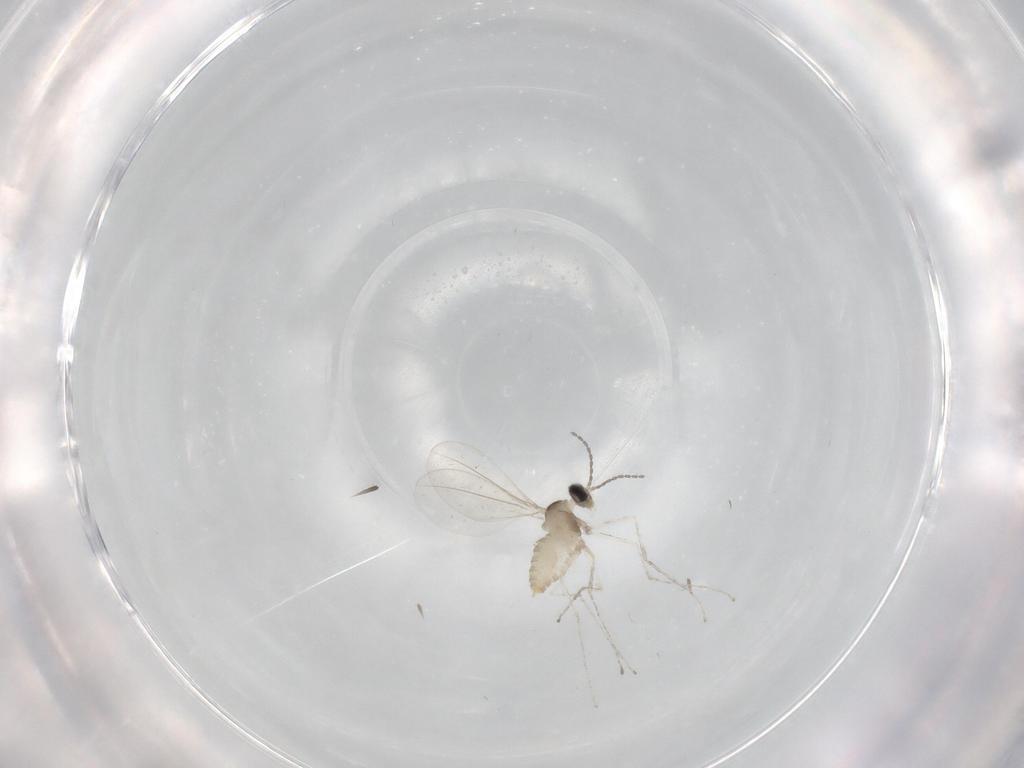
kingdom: Animalia
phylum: Arthropoda
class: Insecta
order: Diptera
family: Cecidomyiidae
